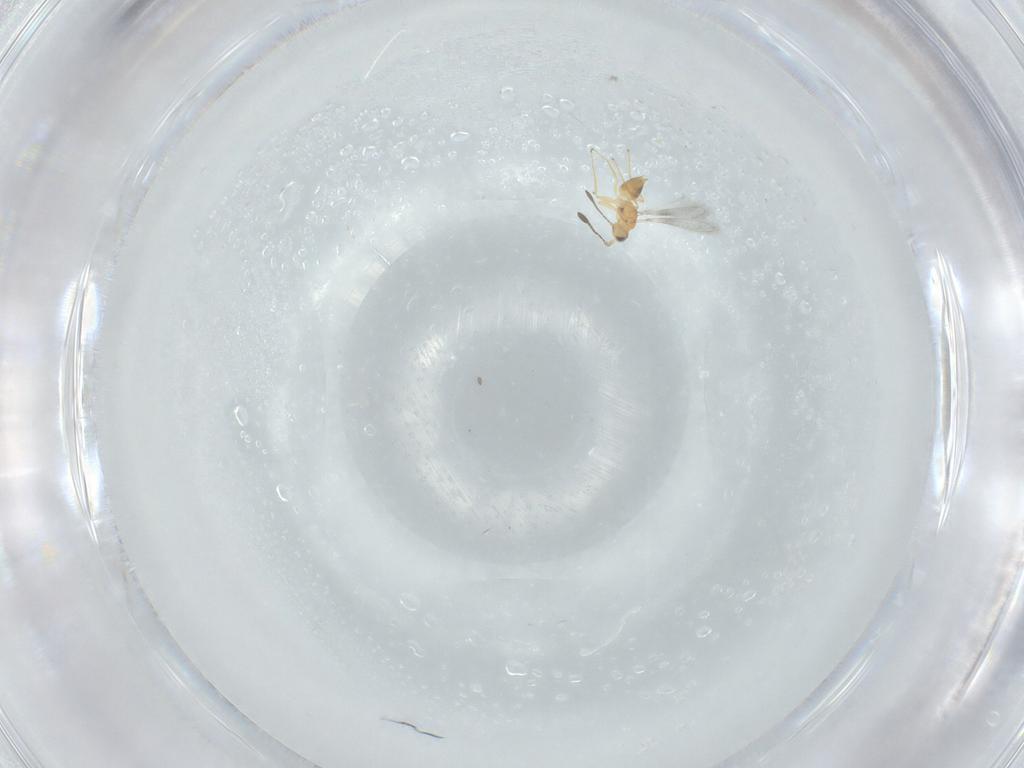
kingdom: Animalia
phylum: Arthropoda
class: Insecta
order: Hymenoptera
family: Mymaridae
